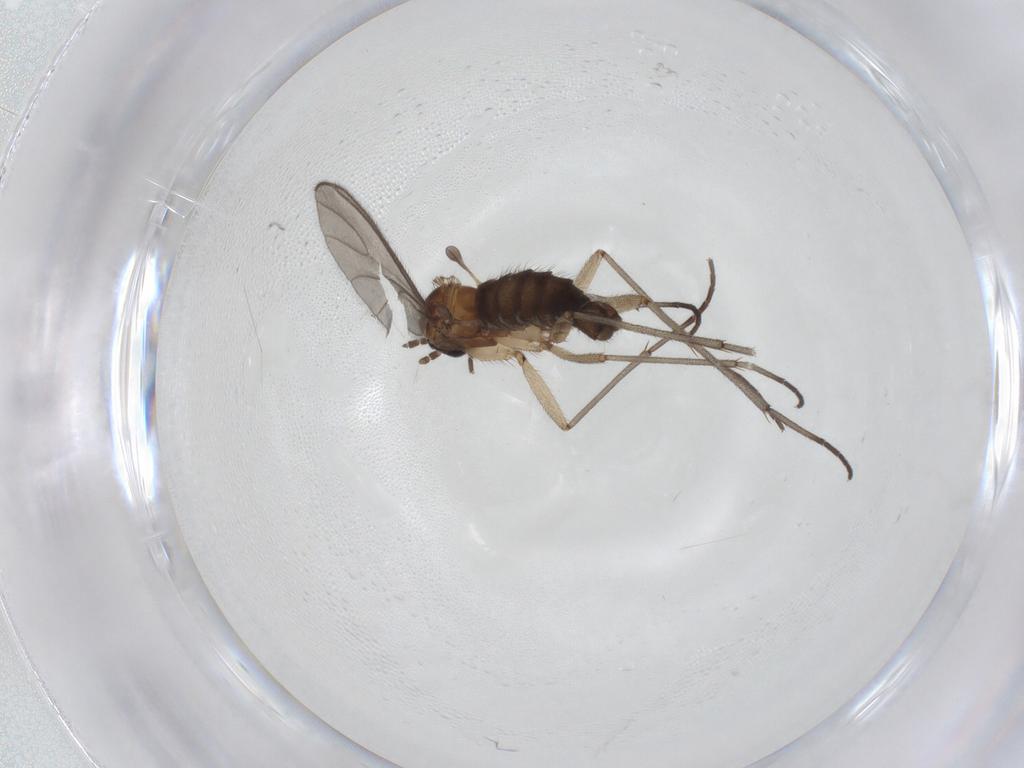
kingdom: Animalia
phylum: Arthropoda
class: Insecta
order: Diptera
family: Sciaridae
